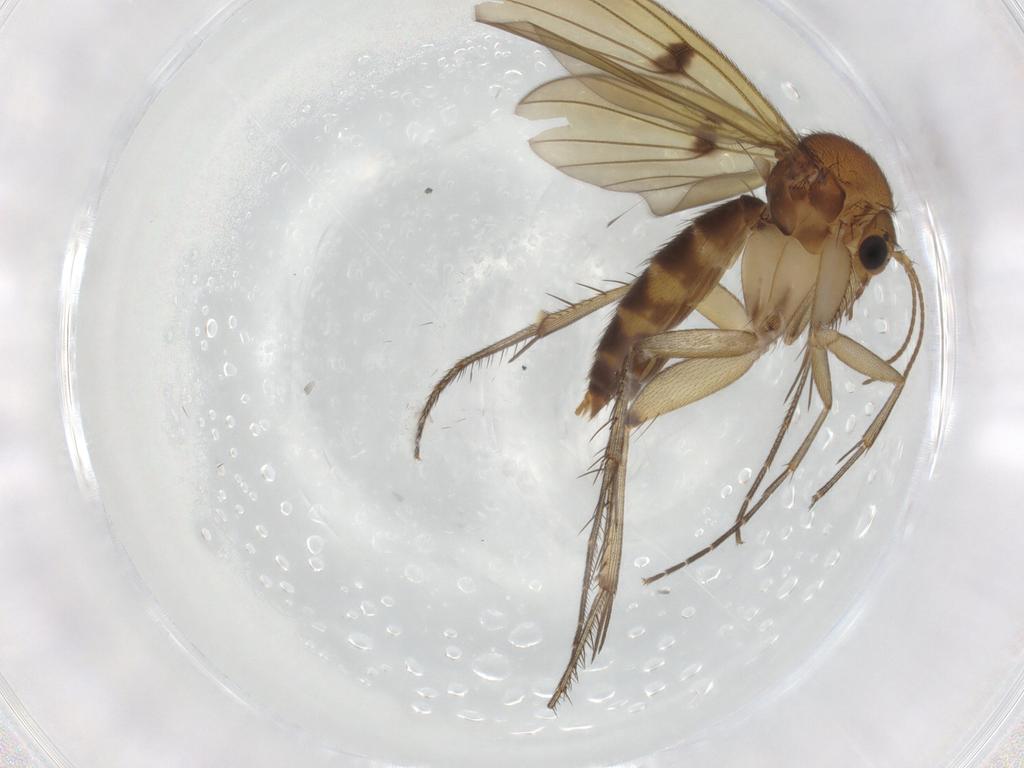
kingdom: Animalia
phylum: Arthropoda
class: Insecta
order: Diptera
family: Mycetophilidae
